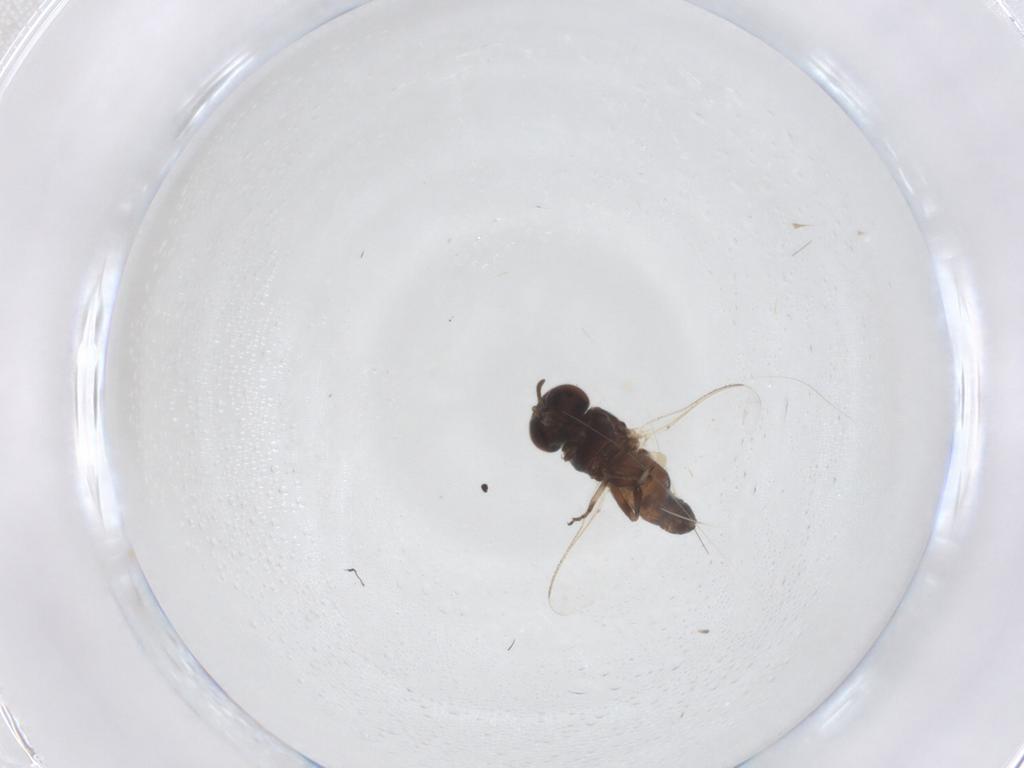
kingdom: Animalia
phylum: Arthropoda
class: Insecta
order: Diptera
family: Simuliidae
